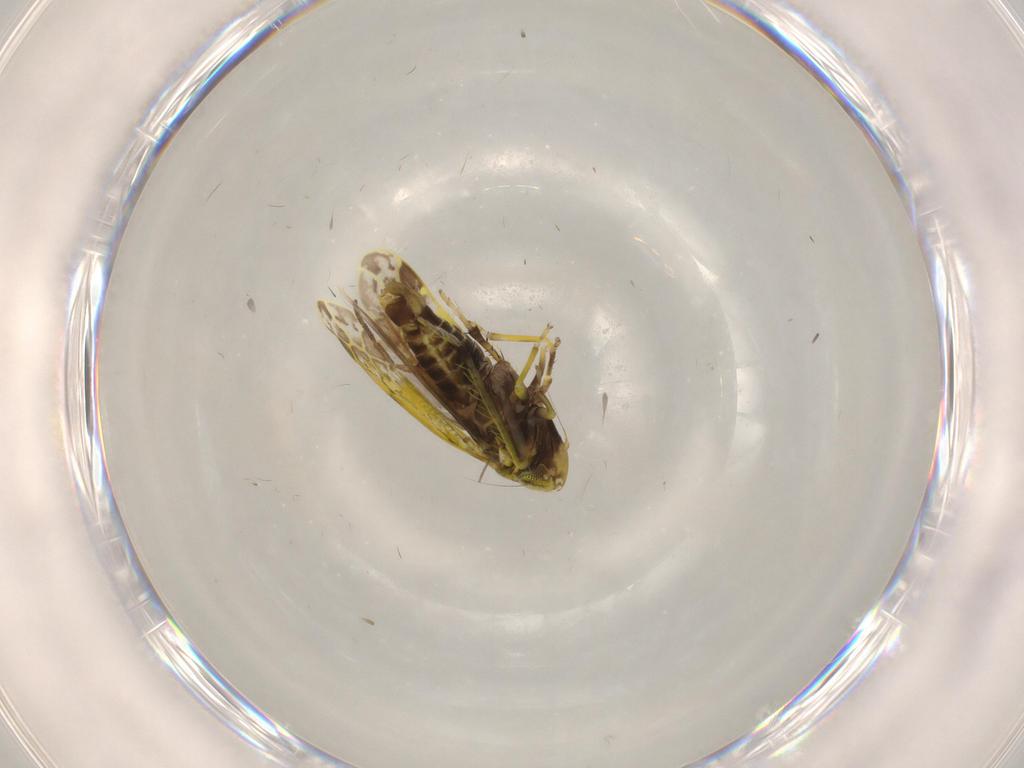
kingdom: Animalia
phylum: Arthropoda
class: Insecta
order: Hemiptera
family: Cicadellidae
